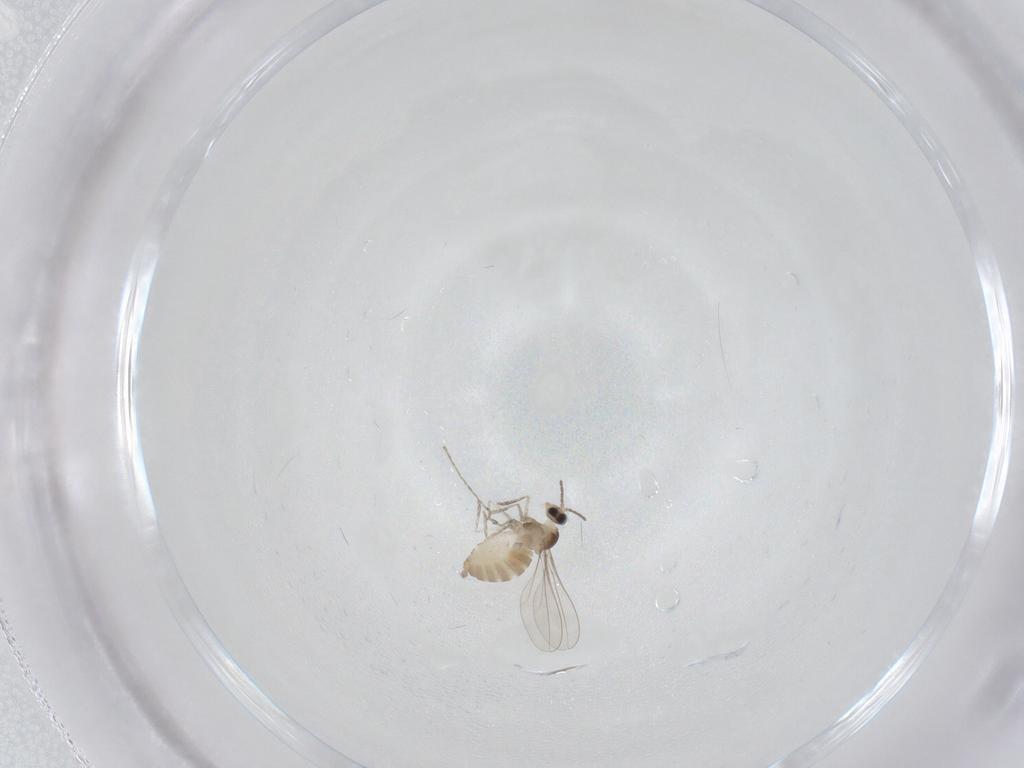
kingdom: Animalia
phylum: Arthropoda
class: Insecta
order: Diptera
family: Cecidomyiidae
